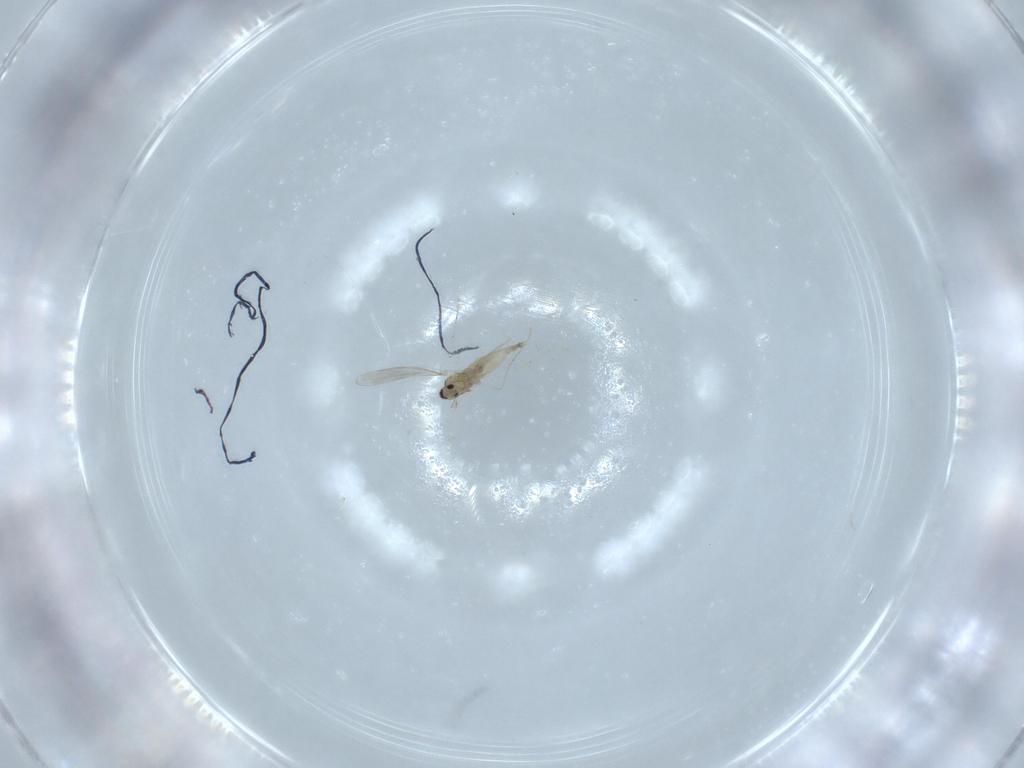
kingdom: Animalia
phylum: Arthropoda
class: Insecta
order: Diptera
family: Cecidomyiidae
